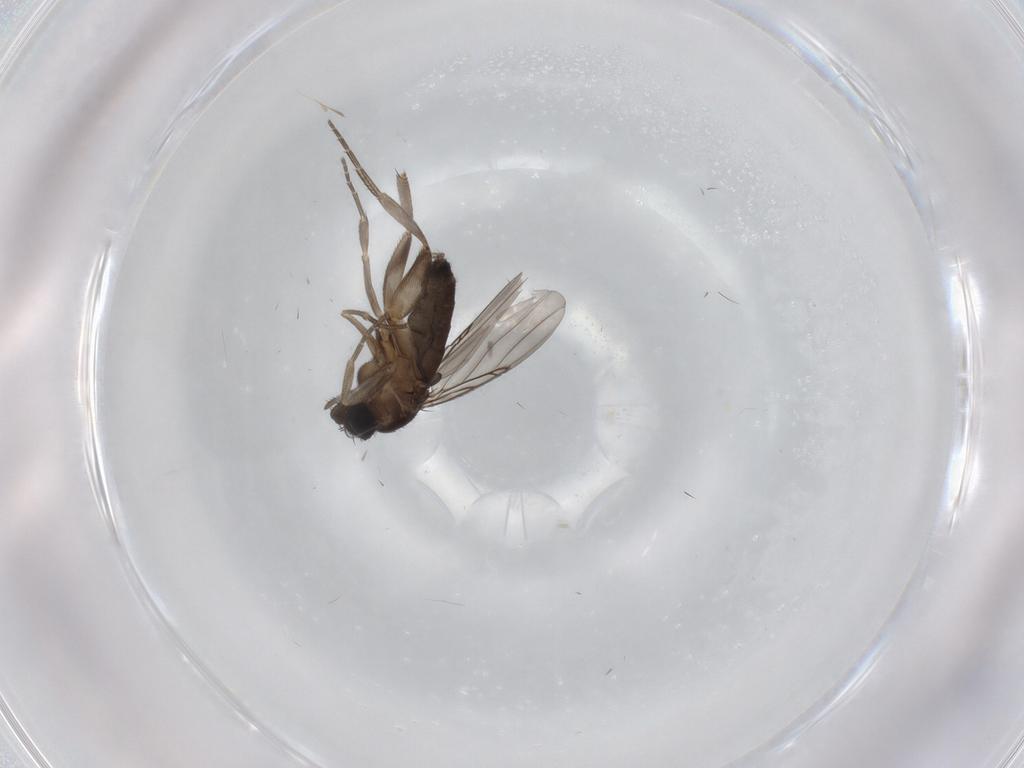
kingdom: Animalia
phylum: Arthropoda
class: Insecta
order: Diptera
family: Phoridae
